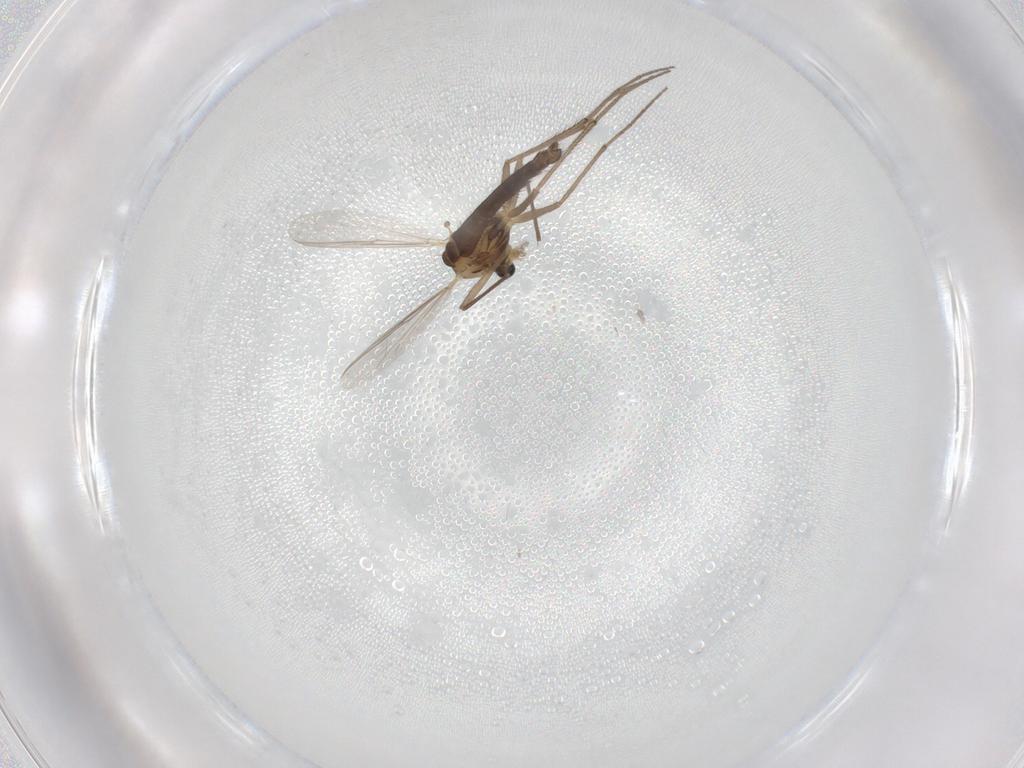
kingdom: Animalia
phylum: Arthropoda
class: Insecta
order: Diptera
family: Chironomidae
